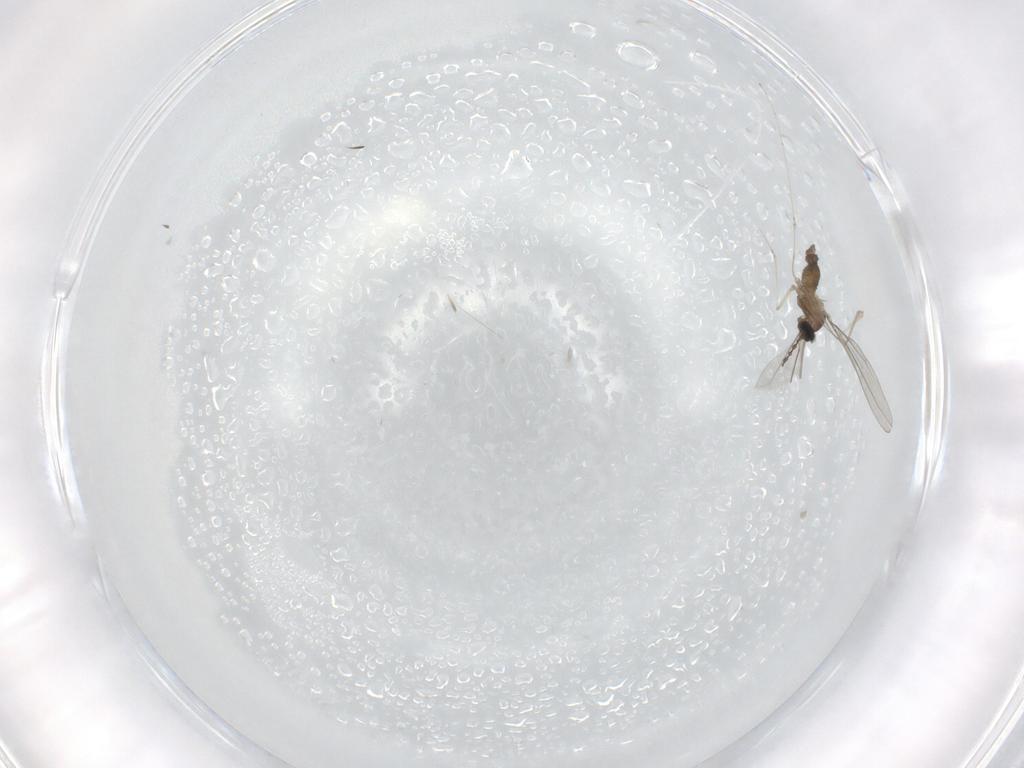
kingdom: Animalia
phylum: Arthropoda
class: Insecta
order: Diptera
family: Cecidomyiidae
